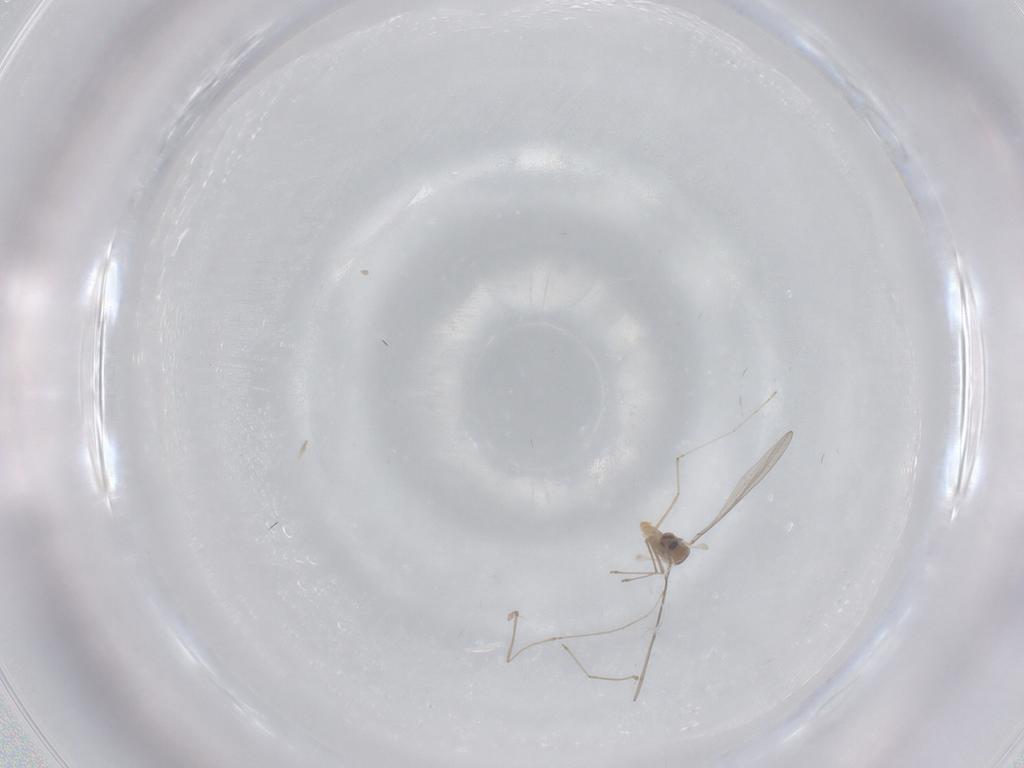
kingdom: Animalia
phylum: Arthropoda
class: Insecta
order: Diptera
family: Cecidomyiidae
